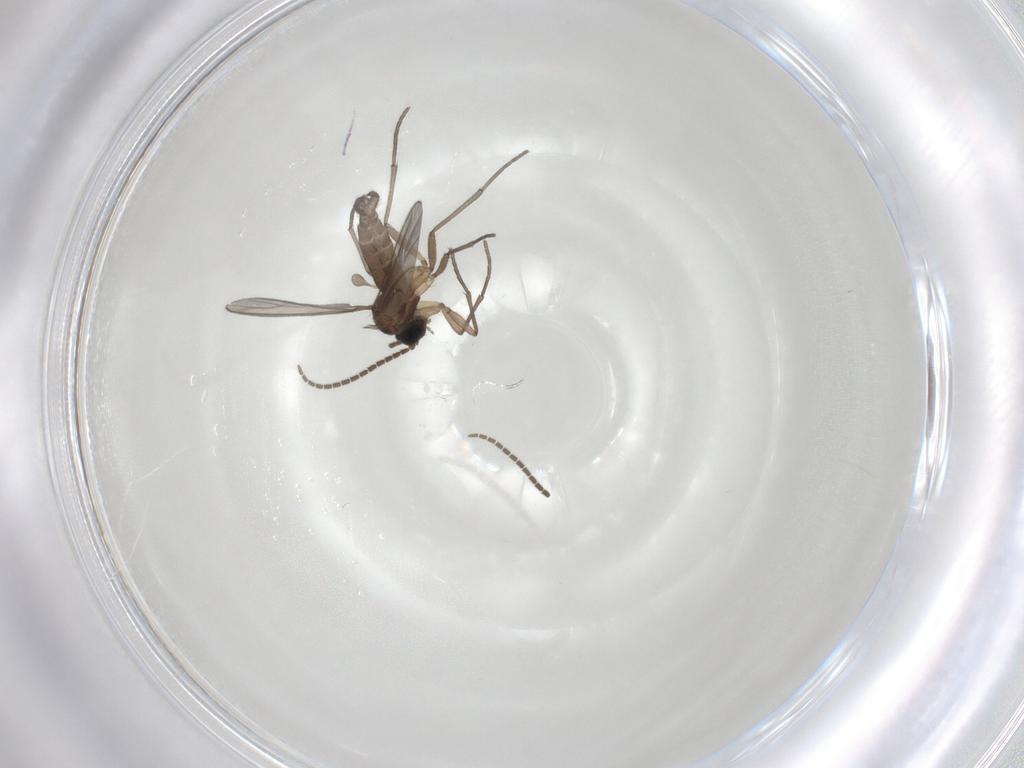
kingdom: Animalia
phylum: Arthropoda
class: Insecta
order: Diptera
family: Sciaridae
